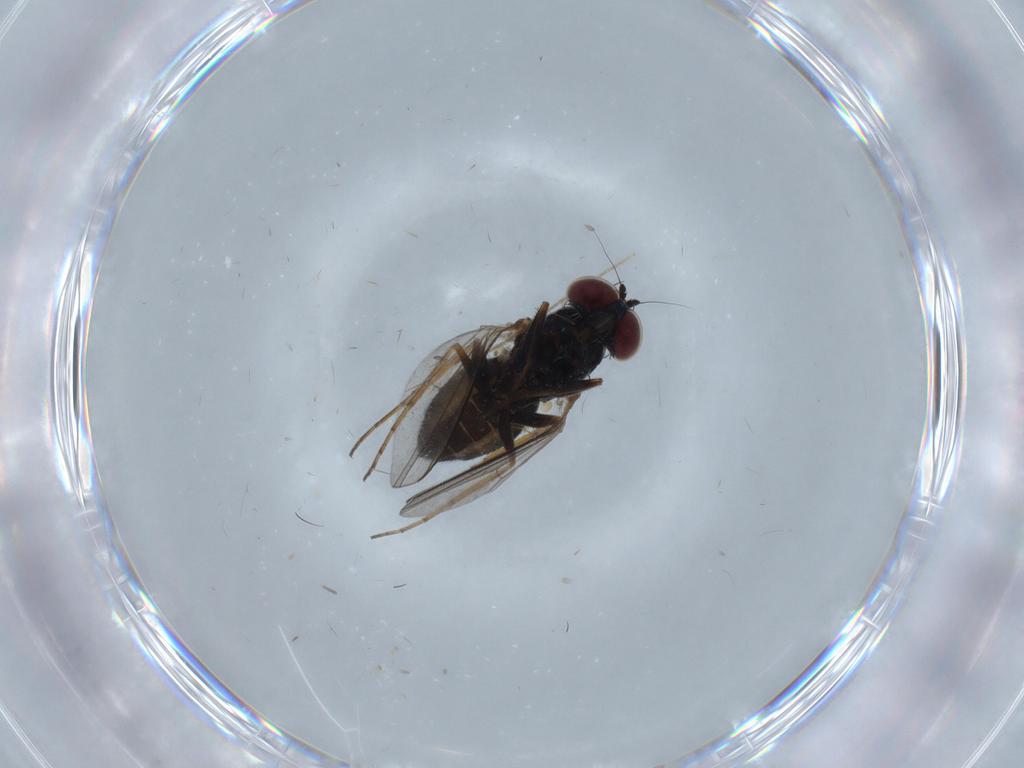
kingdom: Animalia
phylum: Arthropoda
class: Insecta
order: Diptera
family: Dolichopodidae
